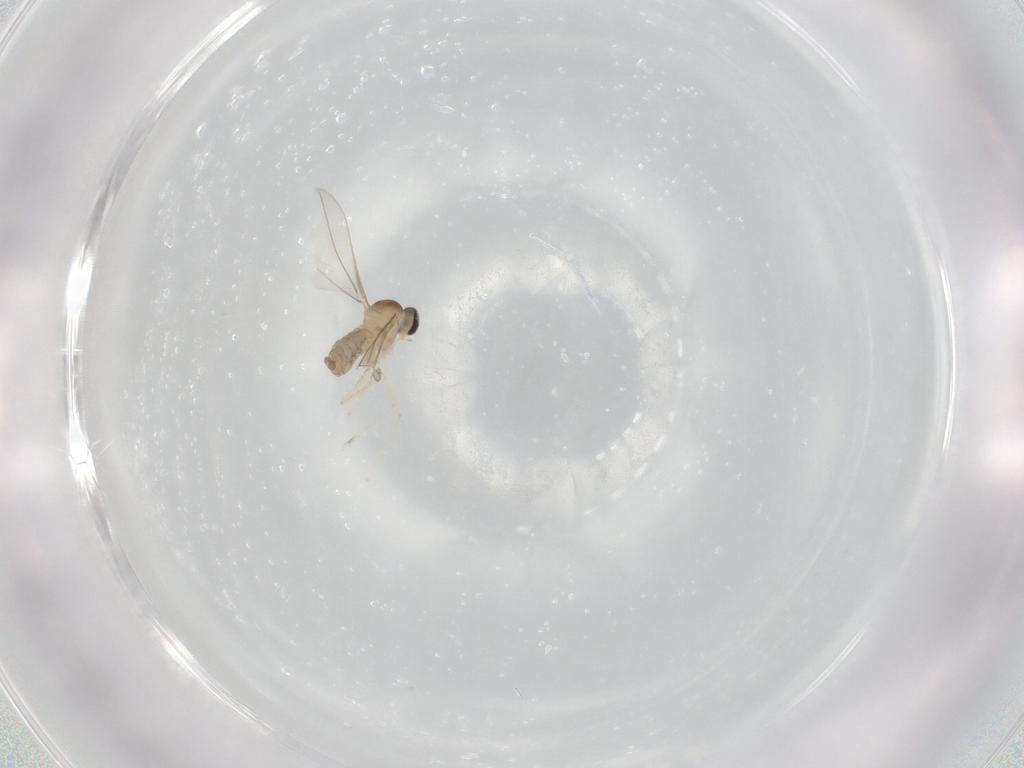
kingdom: Animalia
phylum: Arthropoda
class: Insecta
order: Diptera
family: Cecidomyiidae
